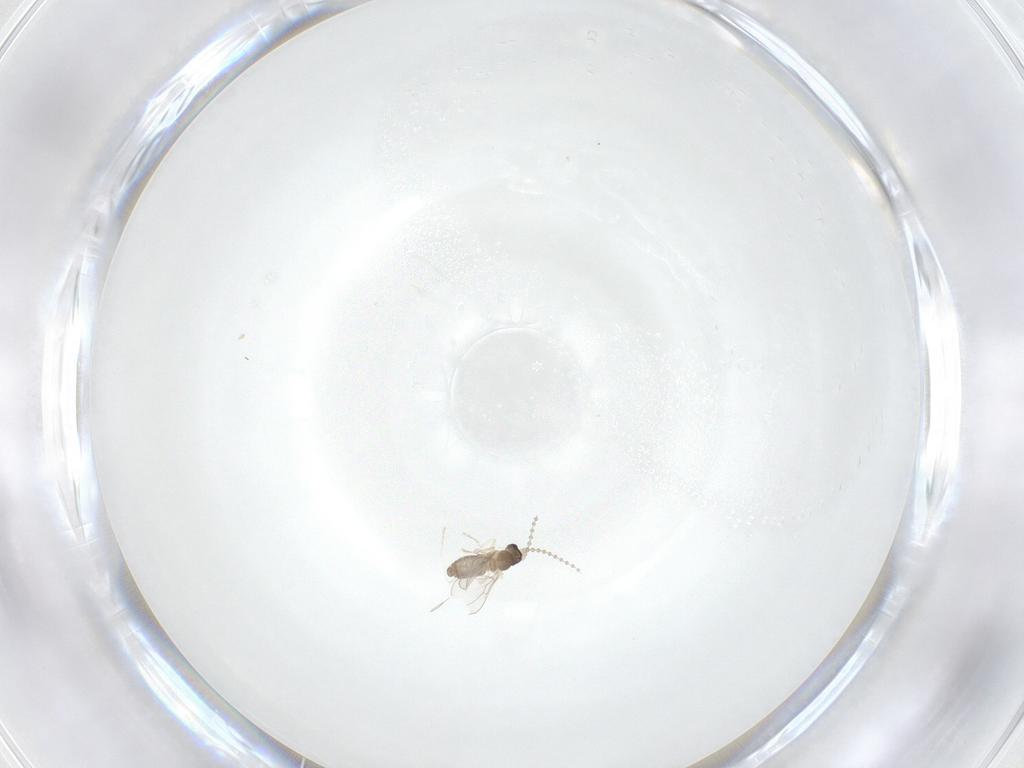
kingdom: Animalia
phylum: Arthropoda
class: Insecta
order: Diptera
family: Cecidomyiidae
